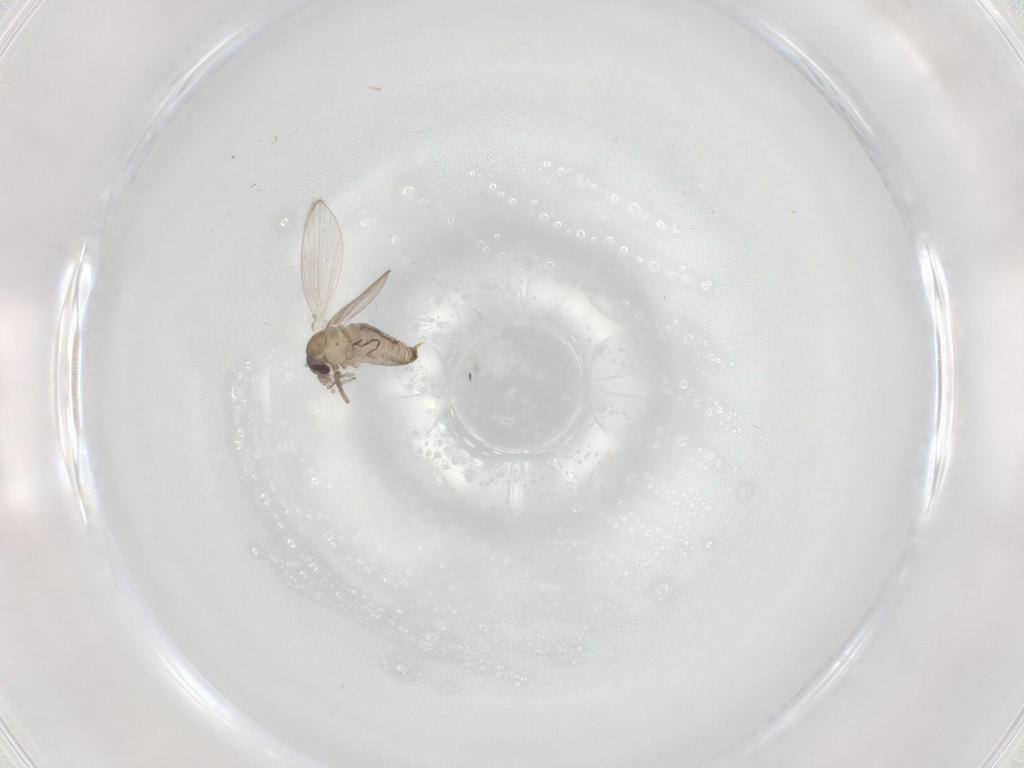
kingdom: Animalia
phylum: Arthropoda
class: Insecta
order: Diptera
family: Dolichopodidae
